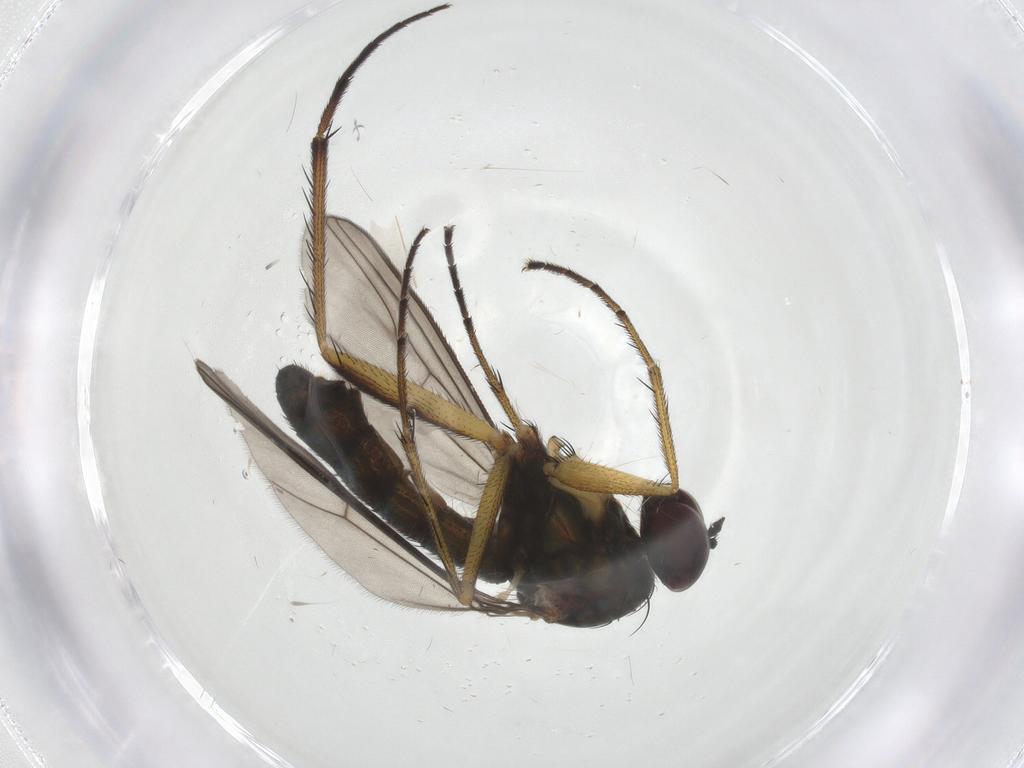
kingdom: Animalia
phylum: Arthropoda
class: Insecta
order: Diptera
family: Dolichopodidae
